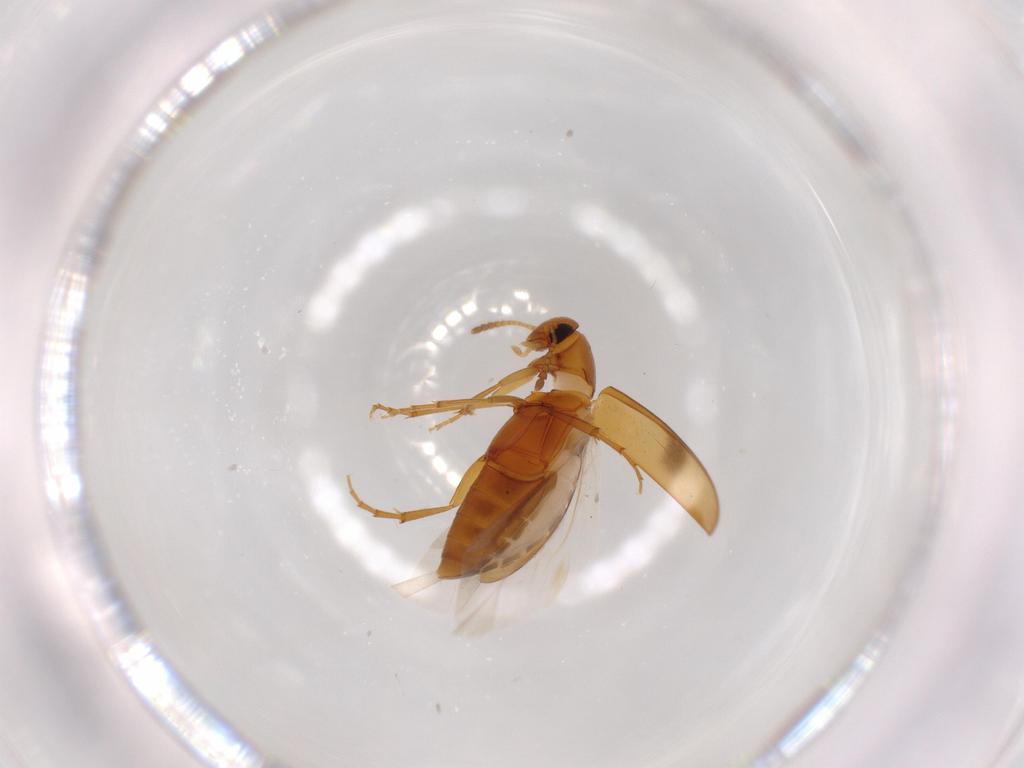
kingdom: Animalia
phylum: Arthropoda
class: Insecta
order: Coleoptera
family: Scraptiidae
